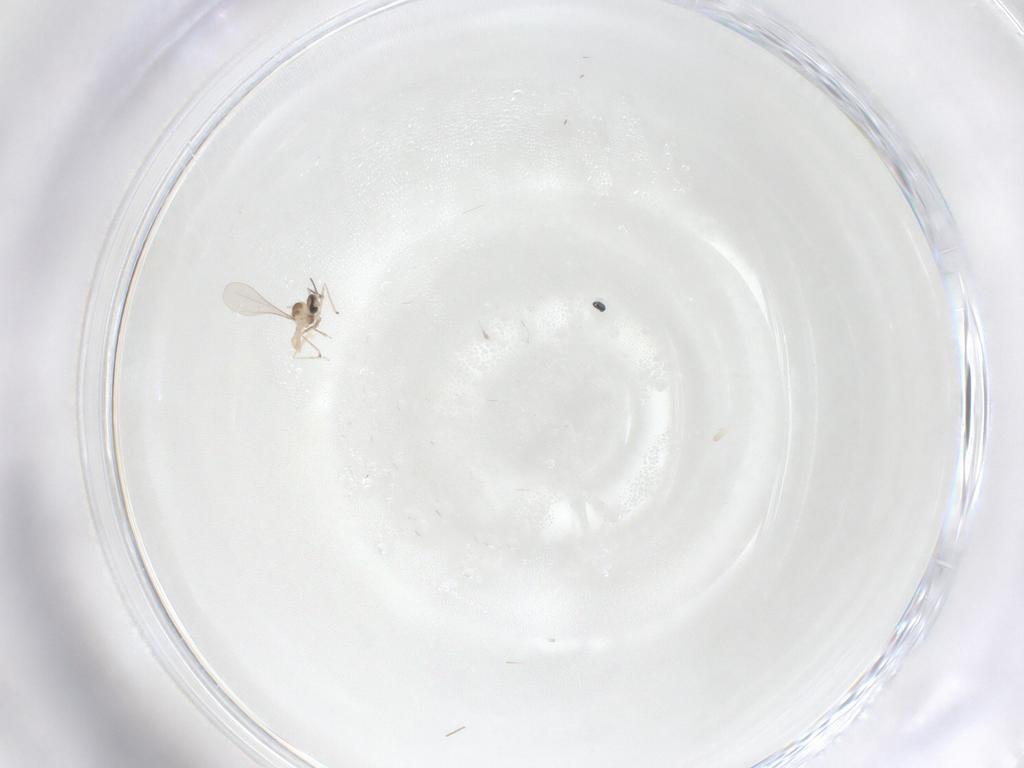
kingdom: Animalia
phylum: Arthropoda
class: Insecta
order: Diptera
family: Cecidomyiidae
